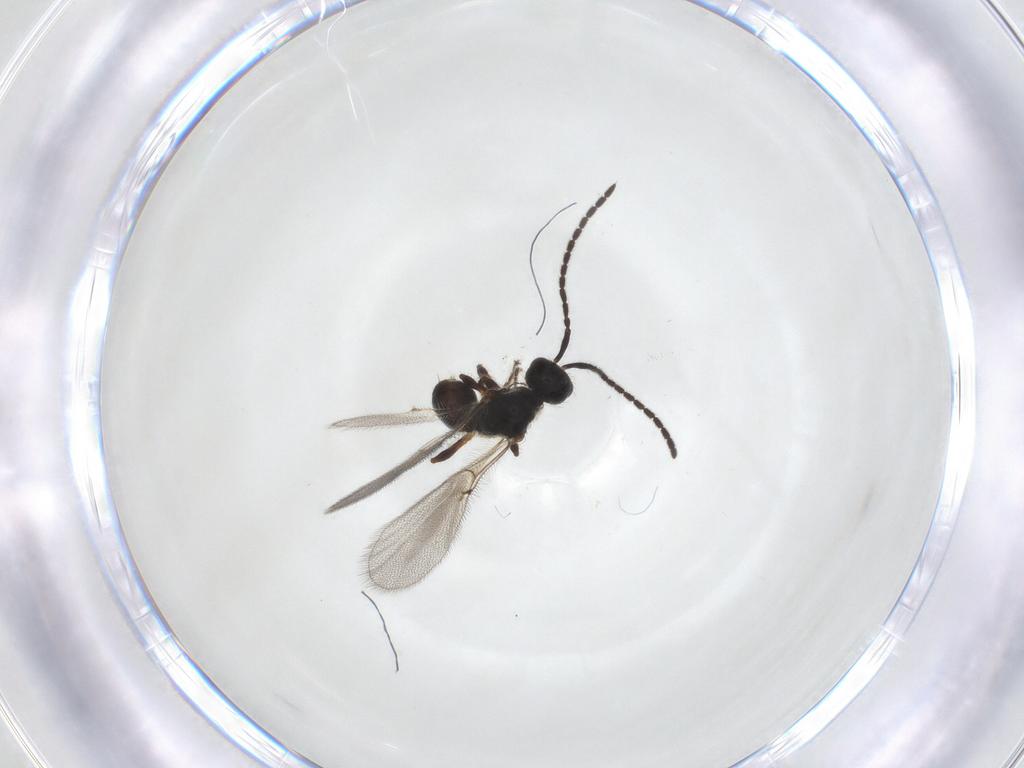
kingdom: Animalia
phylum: Arthropoda
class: Insecta
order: Hymenoptera
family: Diapriidae
